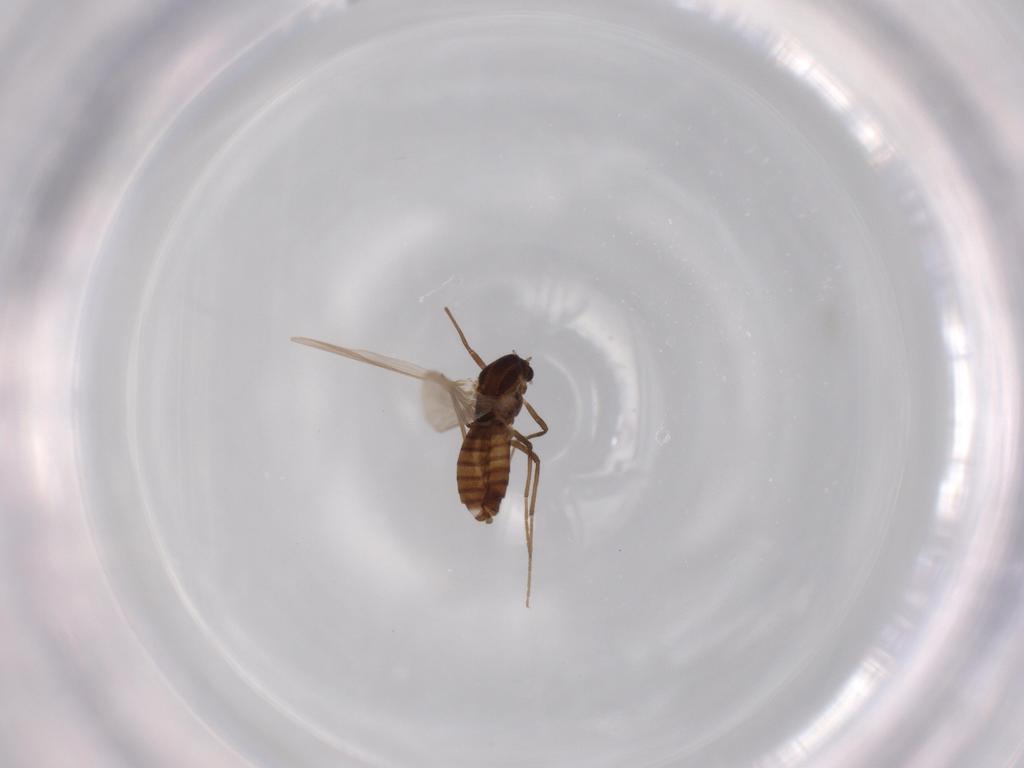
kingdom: Animalia
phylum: Arthropoda
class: Insecta
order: Diptera
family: Chironomidae
